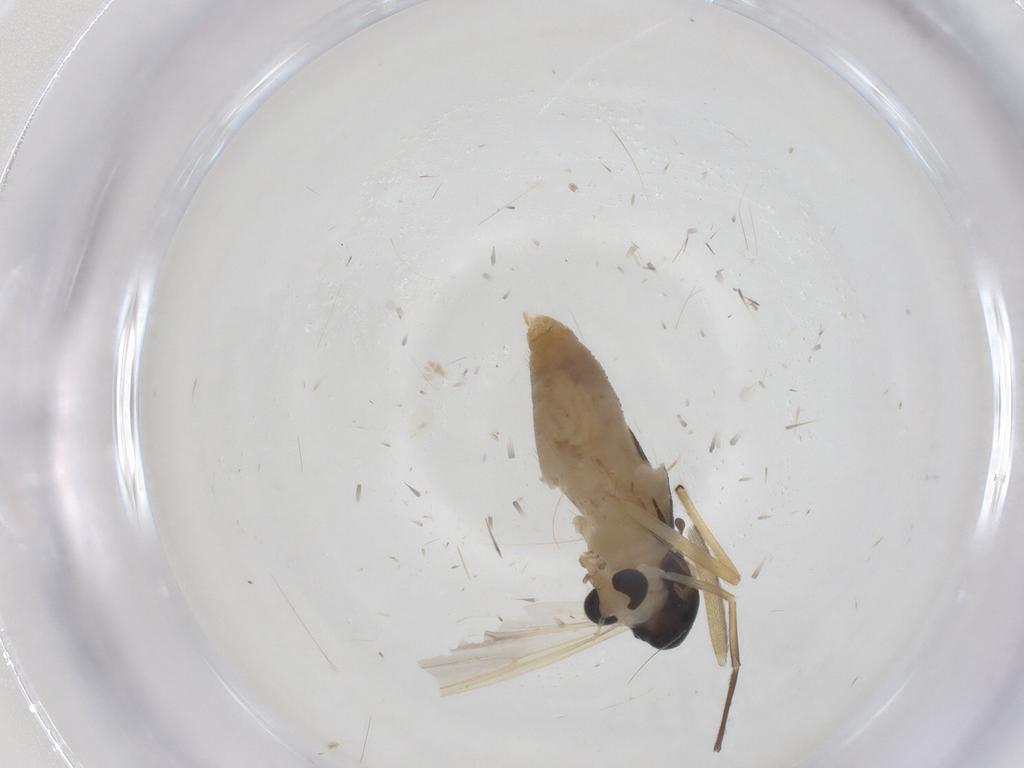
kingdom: Animalia
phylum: Arthropoda
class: Insecta
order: Diptera
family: Chironomidae
